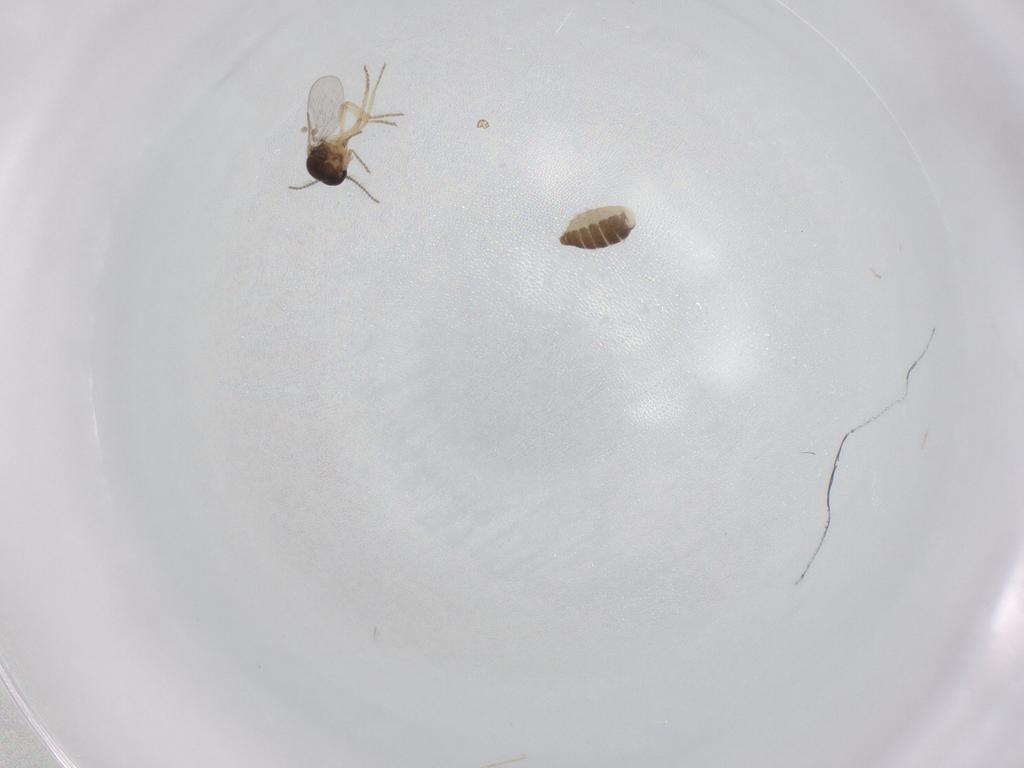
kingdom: Animalia
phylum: Arthropoda
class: Insecta
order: Diptera
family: Ceratopogonidae
